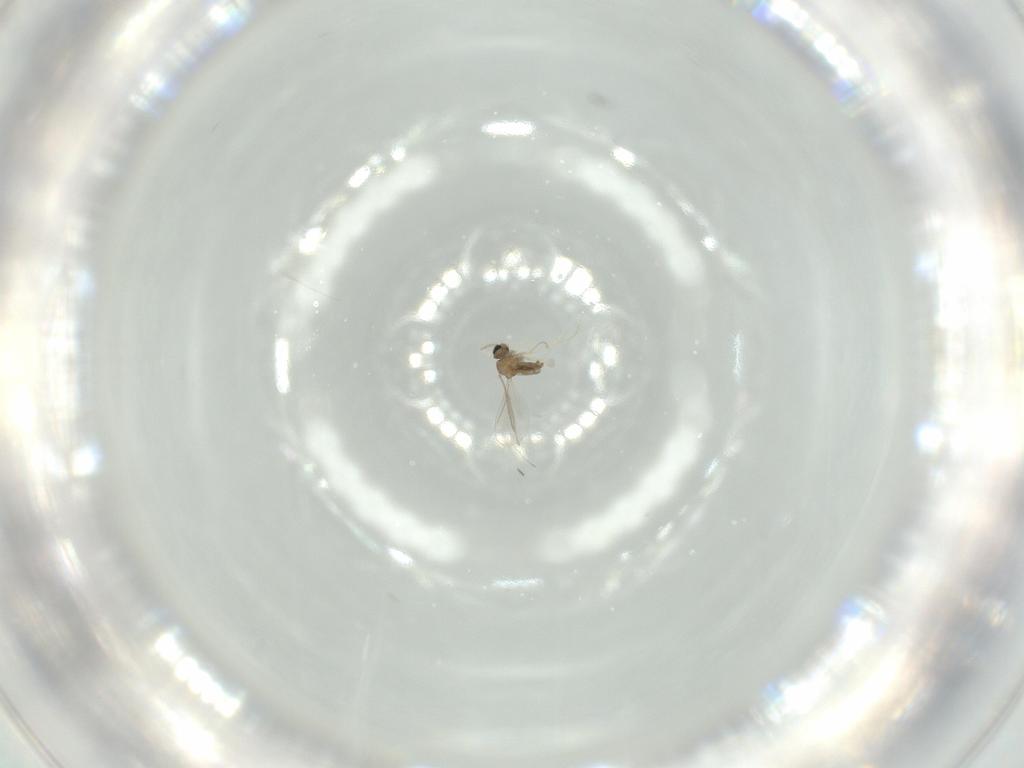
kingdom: Animalia
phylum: Arthropoda
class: Insecta
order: Diptera
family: Cecidomyiidae
